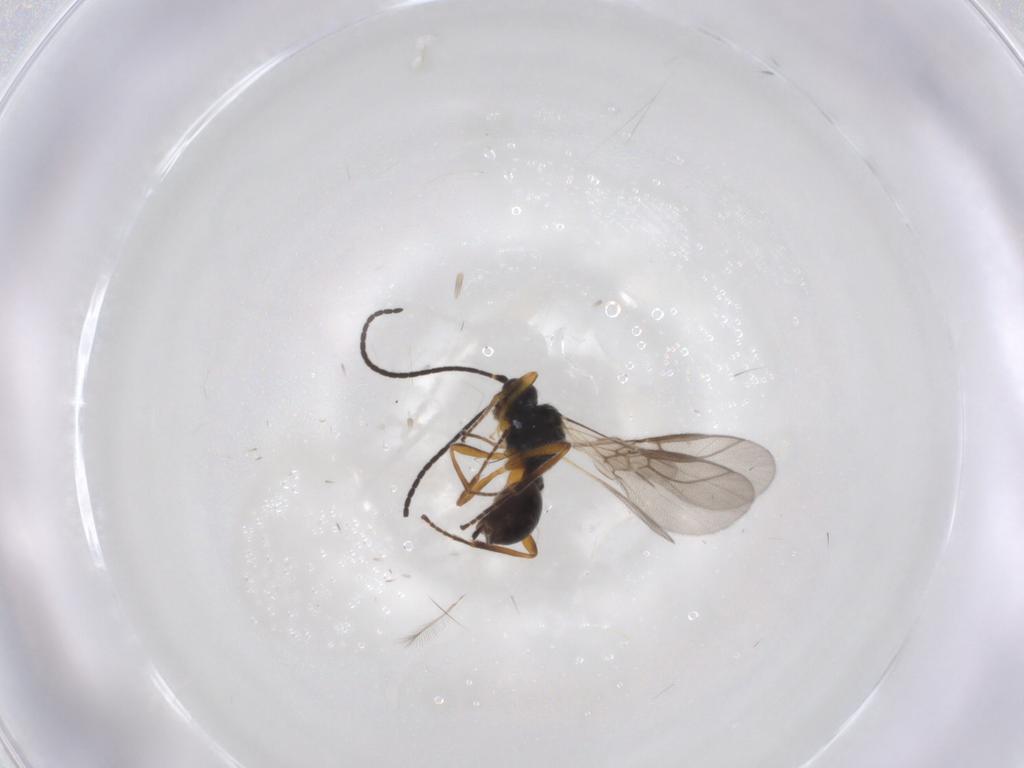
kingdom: Animalia
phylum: Arthropoda
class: Insecta
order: Hymenoptera
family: Braconidae
